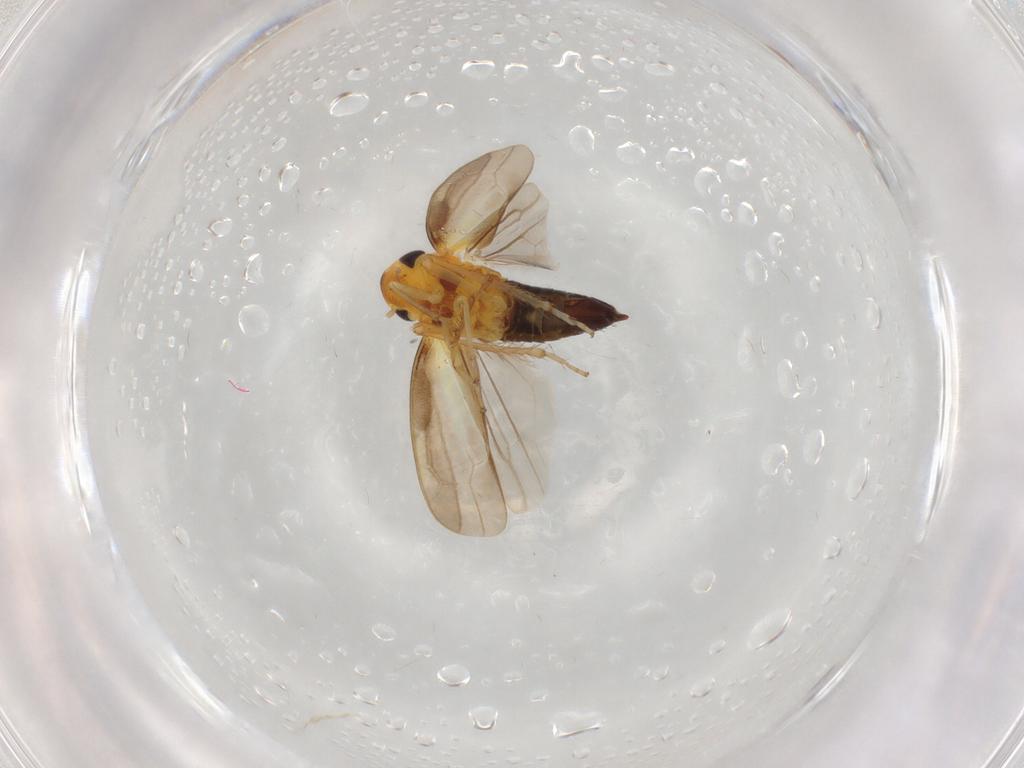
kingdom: Animalia
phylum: Arthropoda
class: Insecta
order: Hemiptera
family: Cicadellidae
